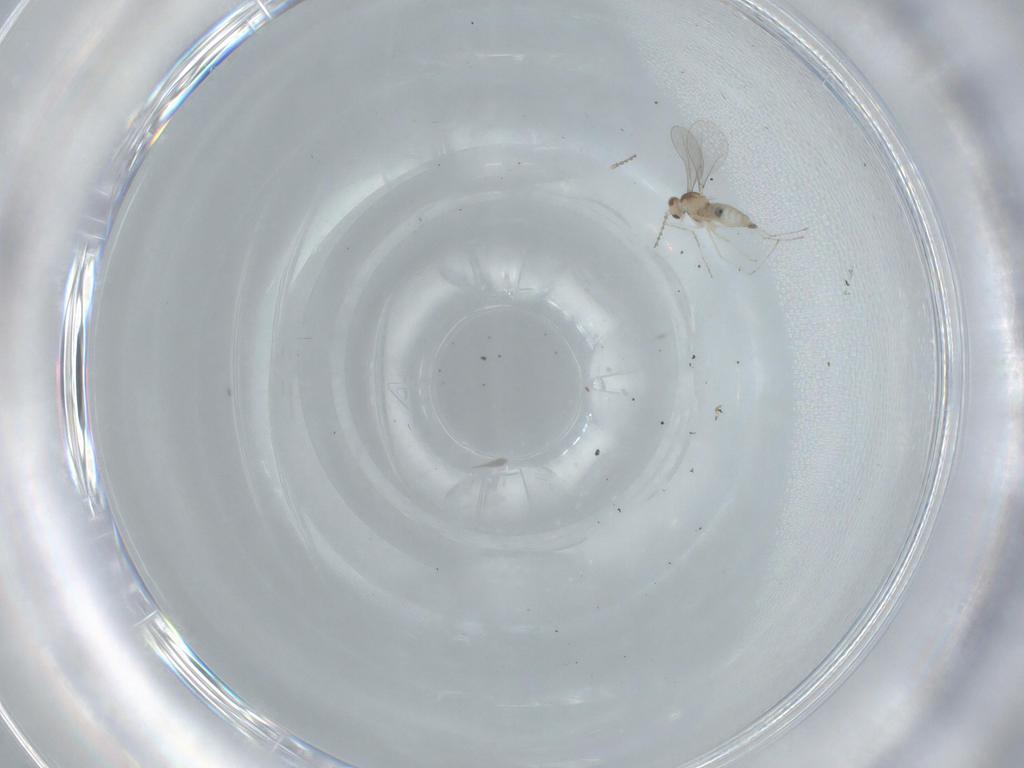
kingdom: Animalia
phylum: Arthropoda
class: Insecta
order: Diptera
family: Cecidomyiidae
